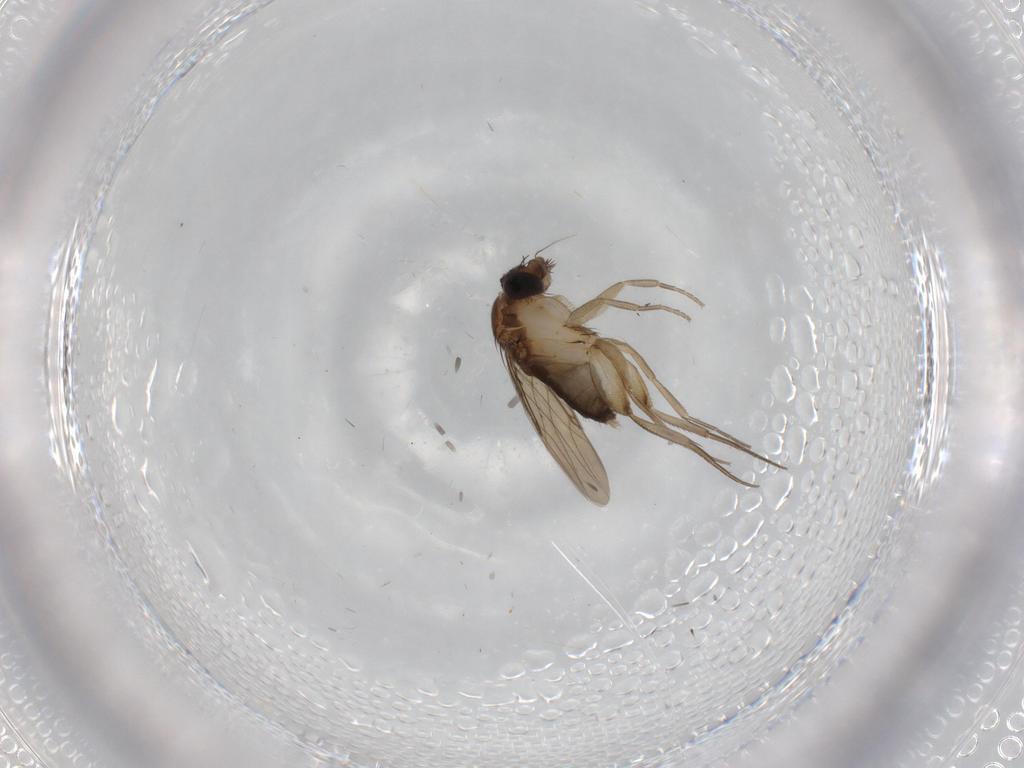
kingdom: Animalia
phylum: Arthropoda
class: Insecta
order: Diptera
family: Phoridae
